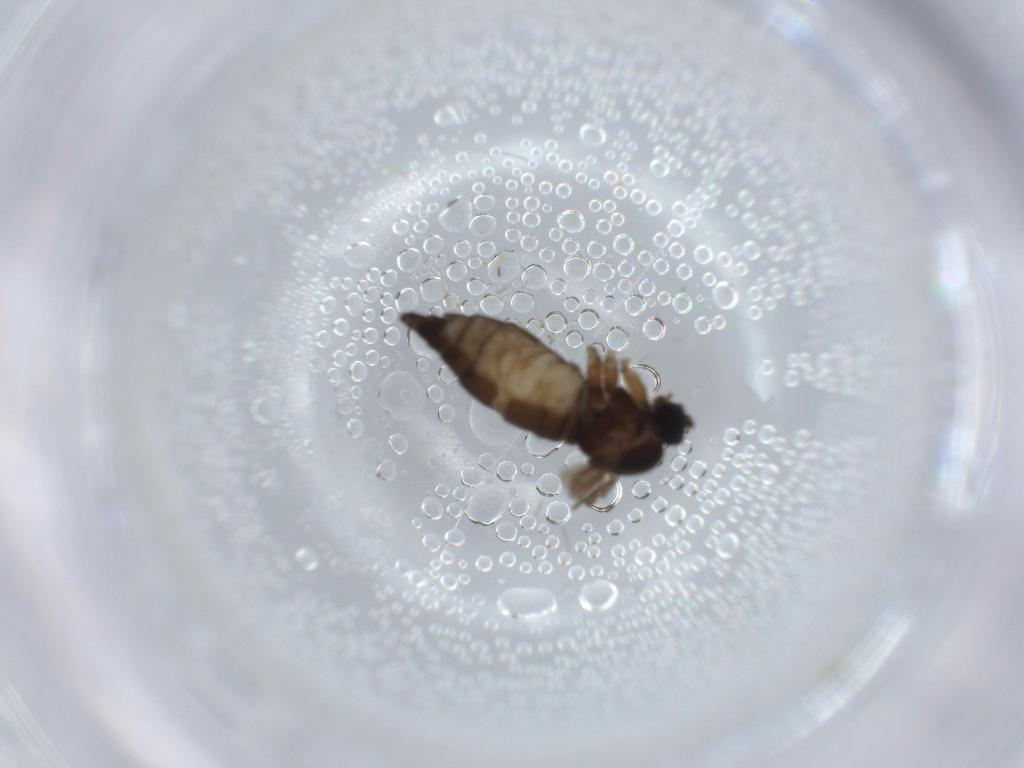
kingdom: Animalia
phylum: Arthropoda
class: Insecta
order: Diptera
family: Sciaridae
